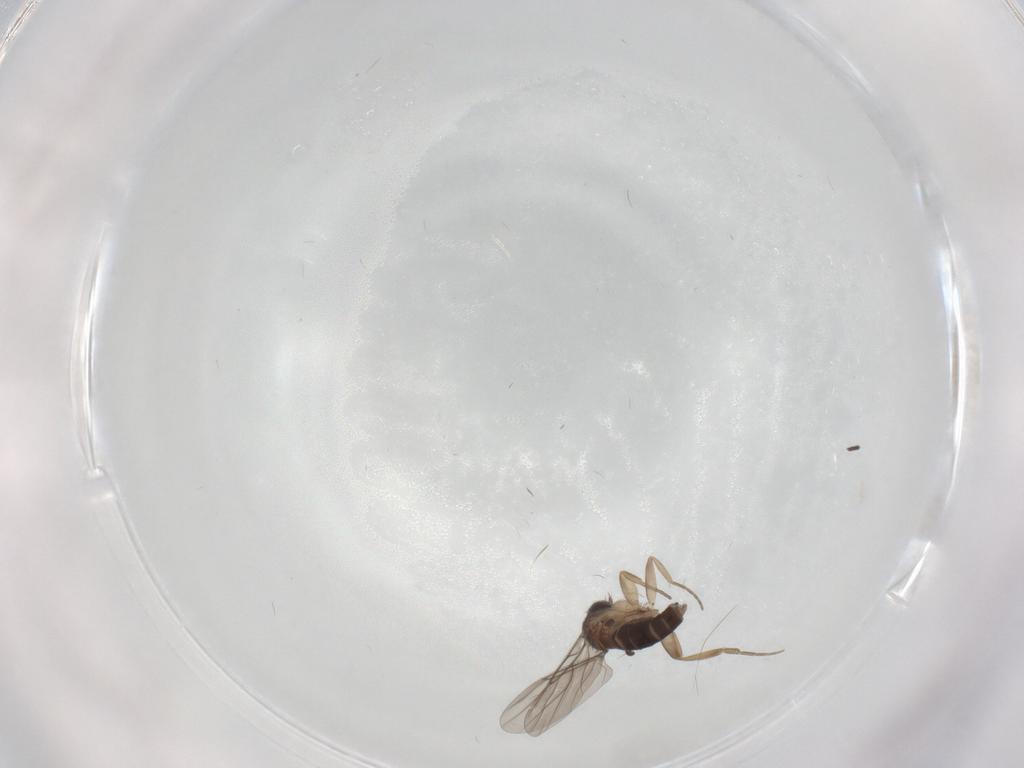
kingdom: Animalia
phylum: Arthropoda
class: Insecta
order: Diptera
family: Sciaridae
